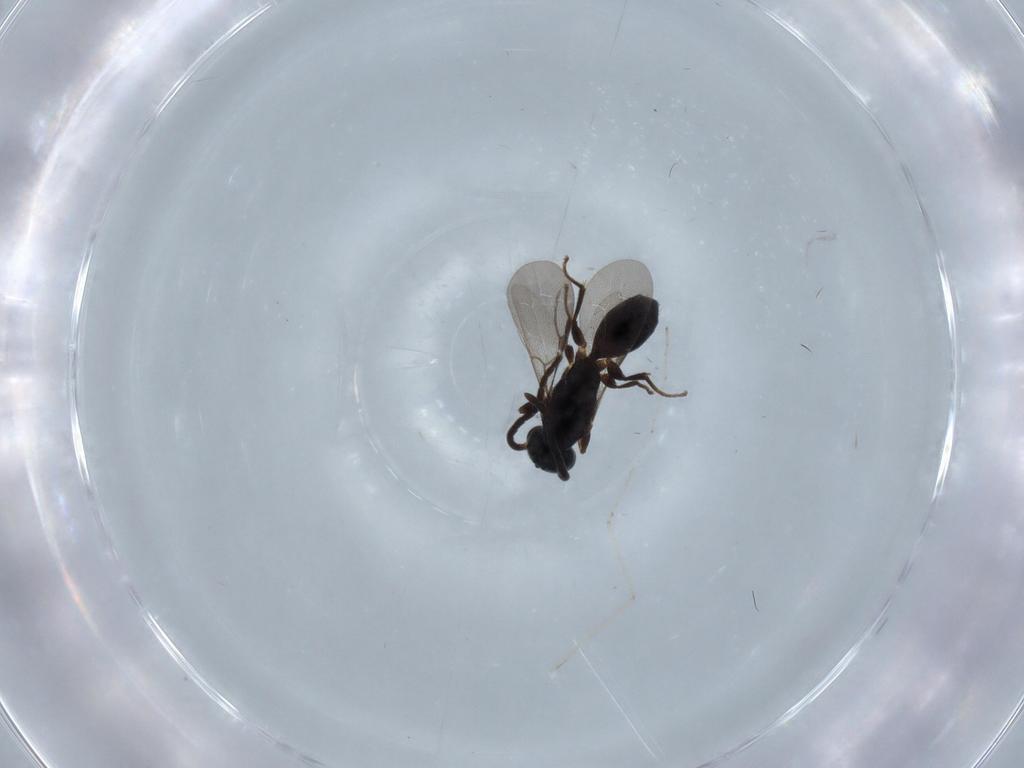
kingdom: Animalia
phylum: Arthropoda
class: Insecta
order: Hymenoptera
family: Bethylidae
